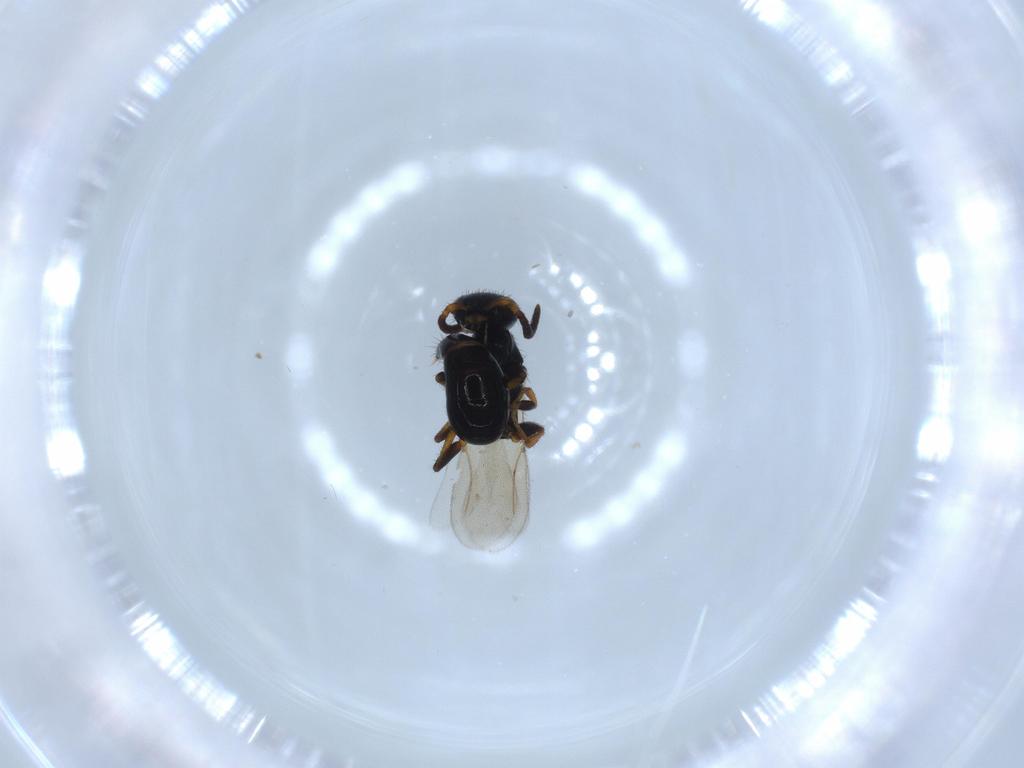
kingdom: Animalia
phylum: Arthropoda
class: Insecta
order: Hymenoptera
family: Bethylidae
